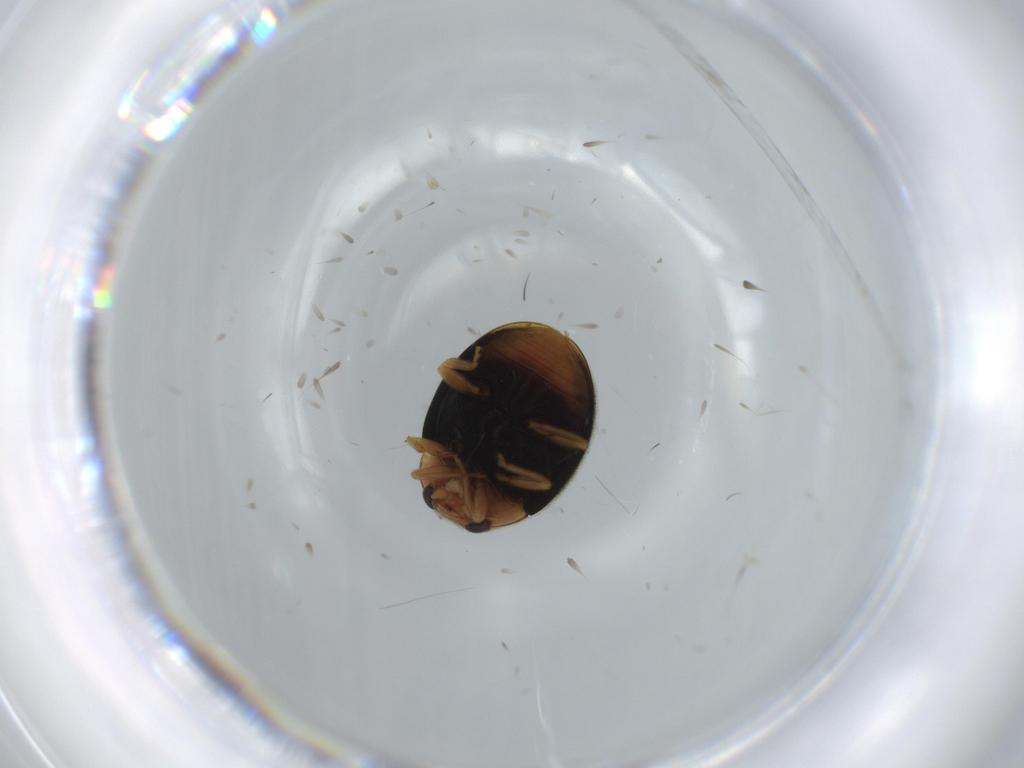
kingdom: Animalia
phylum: Arthropoda
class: Insecta
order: Coleoptera
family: Coccinellidae
